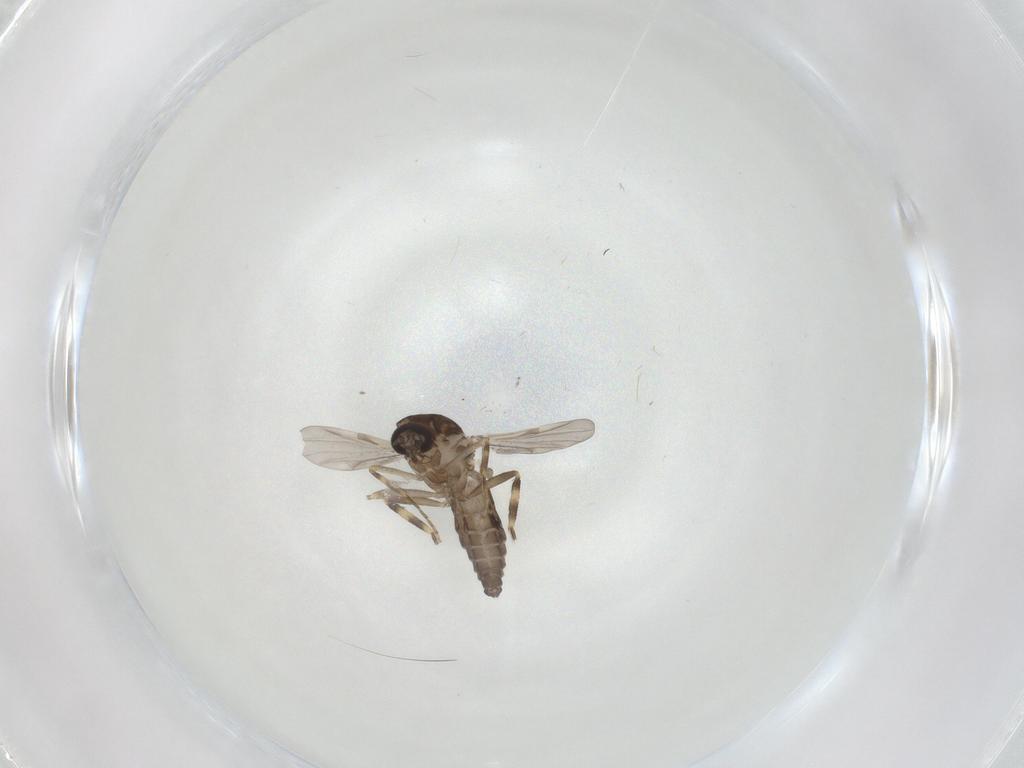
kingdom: Animalia
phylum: Arthropoda
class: Insecta
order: Diptera
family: Ceratopogonidae
